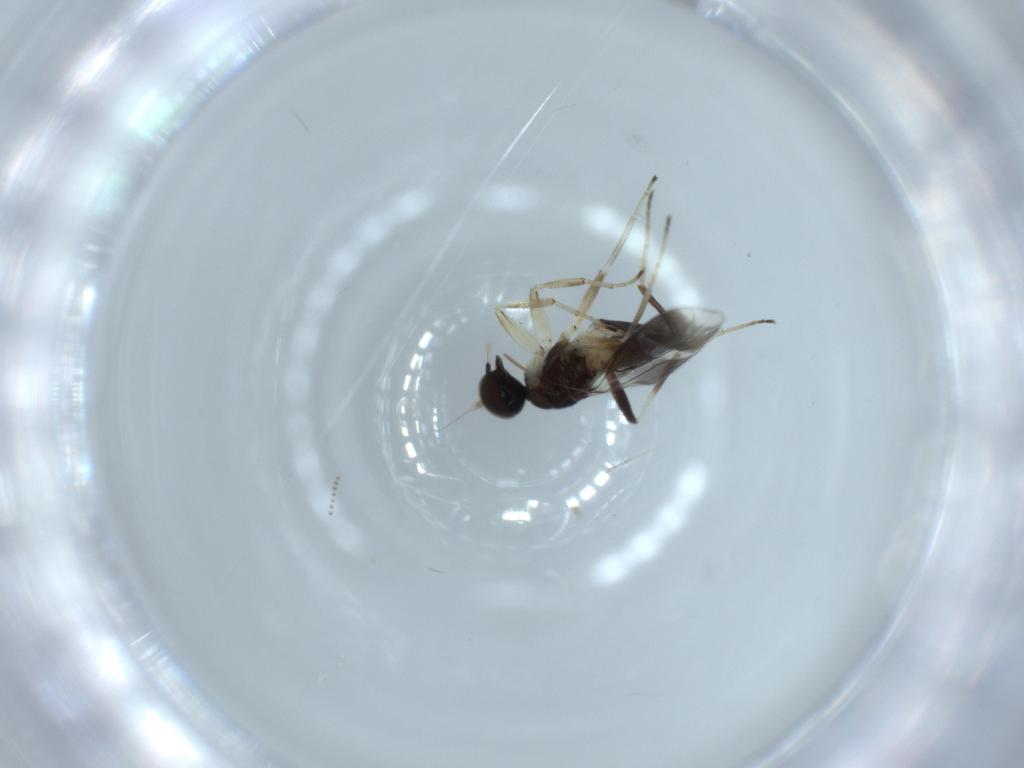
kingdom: Animalia
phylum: Arthropoda
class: Insecta
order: Diptera
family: Hybotidae
